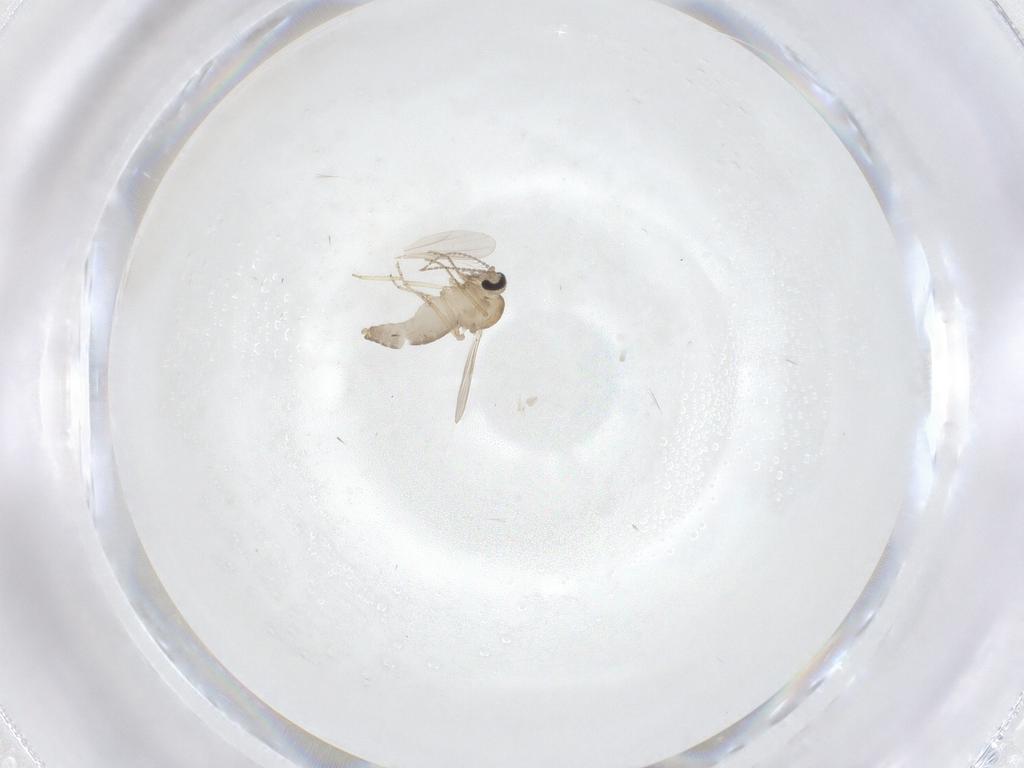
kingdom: Animalia
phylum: Arthropoda
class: Insecta
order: Diptera
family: Ceratopogonidae
